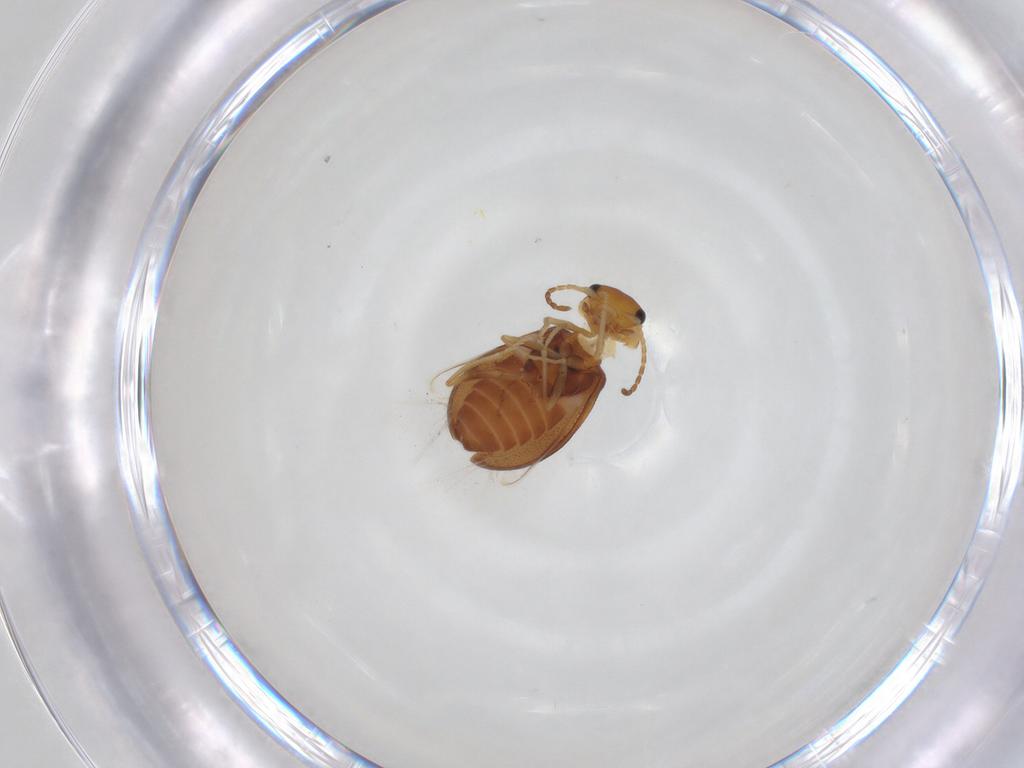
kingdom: Animalia
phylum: Arthropoda
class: Insecta
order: Coleoptera
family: Melyridae
